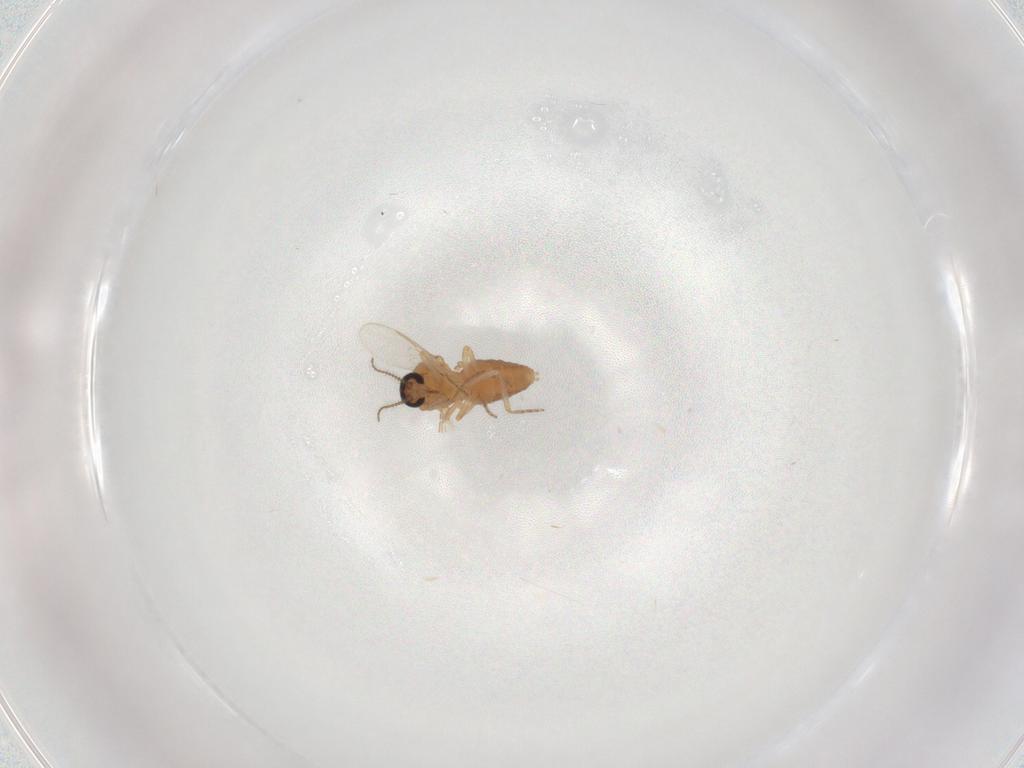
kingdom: Animalia
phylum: Arthropoda
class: Insecta
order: Diptera
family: Ceratopogonidae
